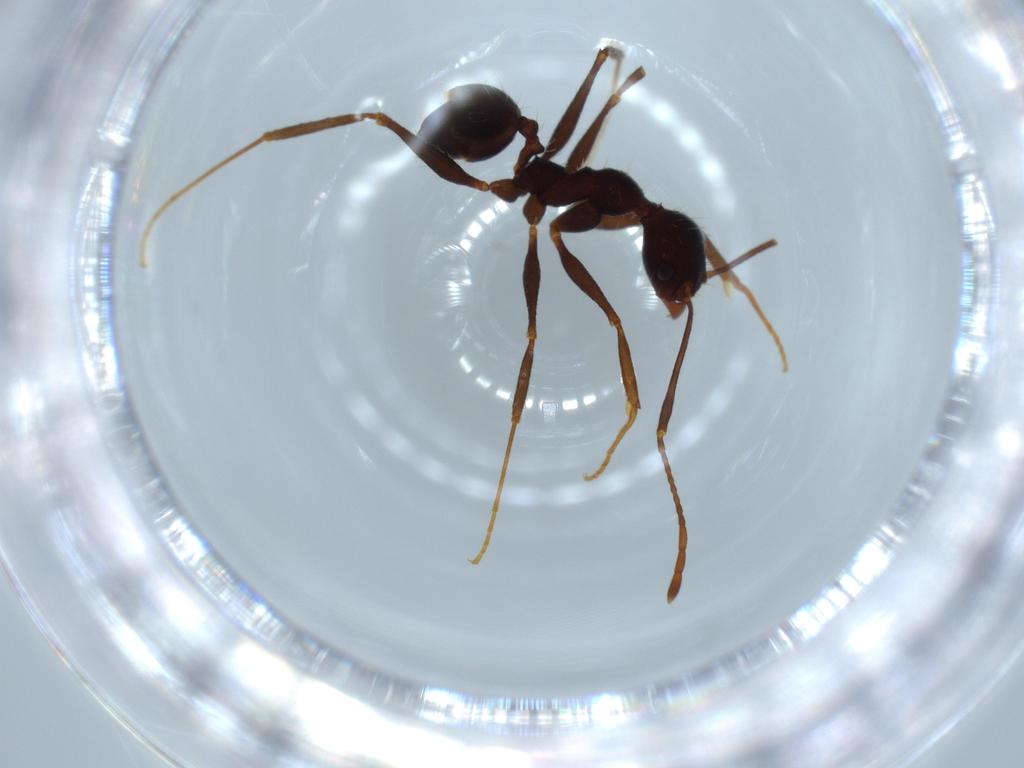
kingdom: Animalia
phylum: Arthropoda
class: Insecta
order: Hymenoptera
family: Formicidae
